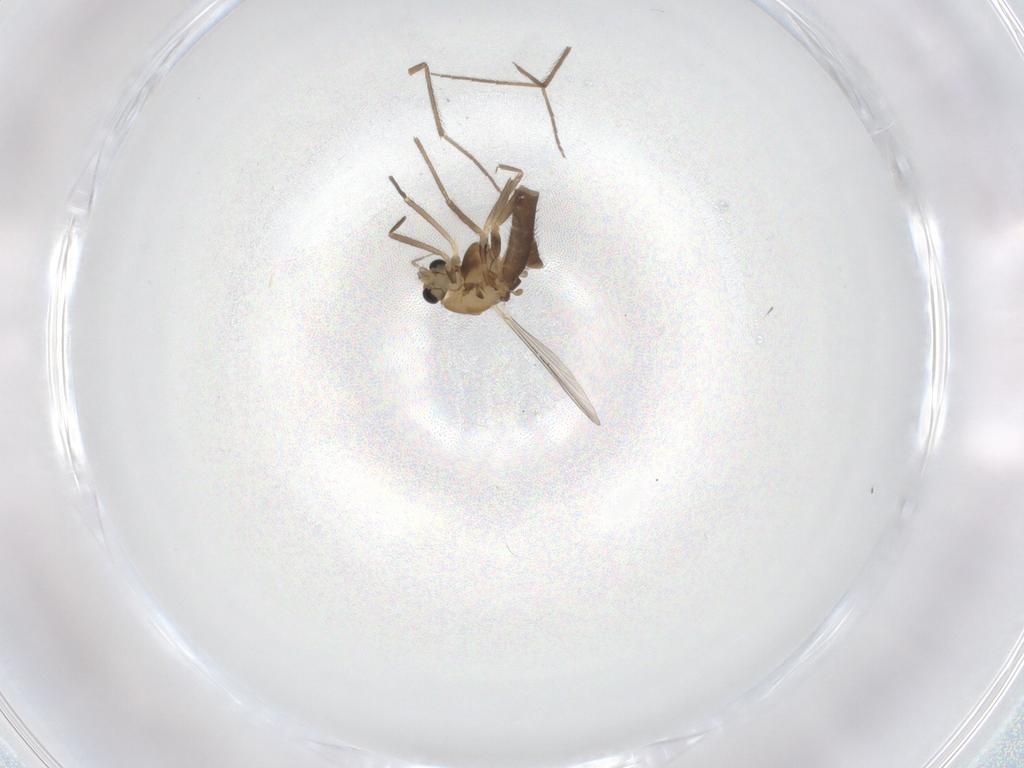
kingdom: Animalia
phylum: Arthropoda
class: Insecta
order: Diptera
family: Chironomidae
